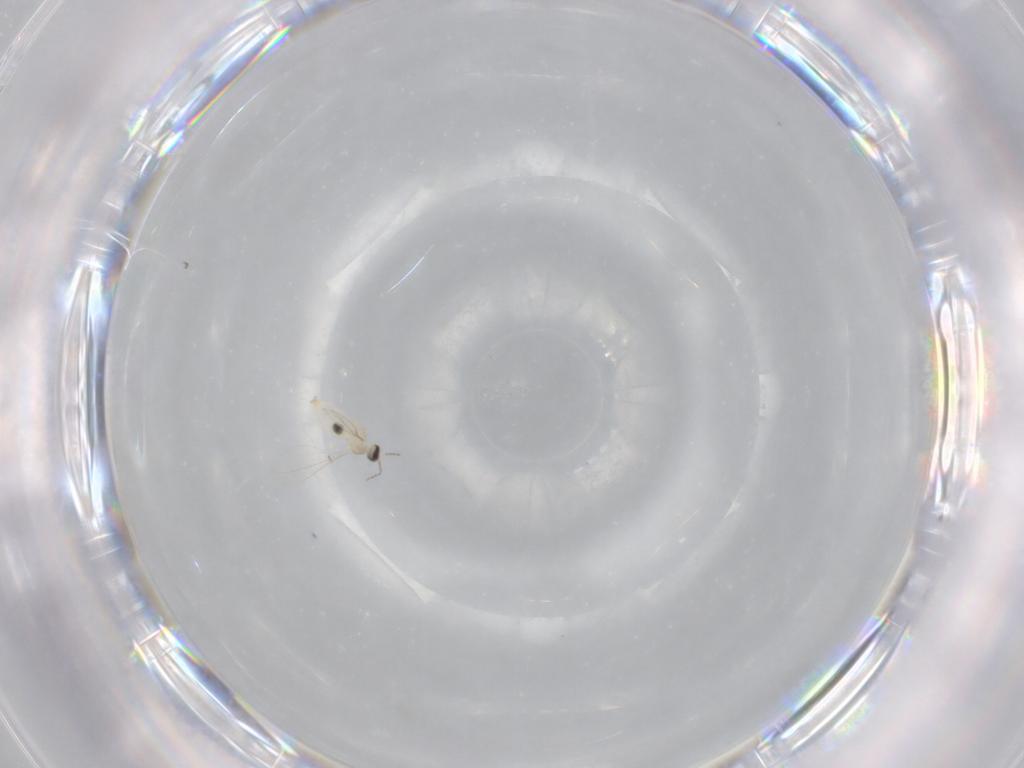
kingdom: Animalia
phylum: Arthropoda
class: Insecta
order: Diptera
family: Cecidomyiidae
